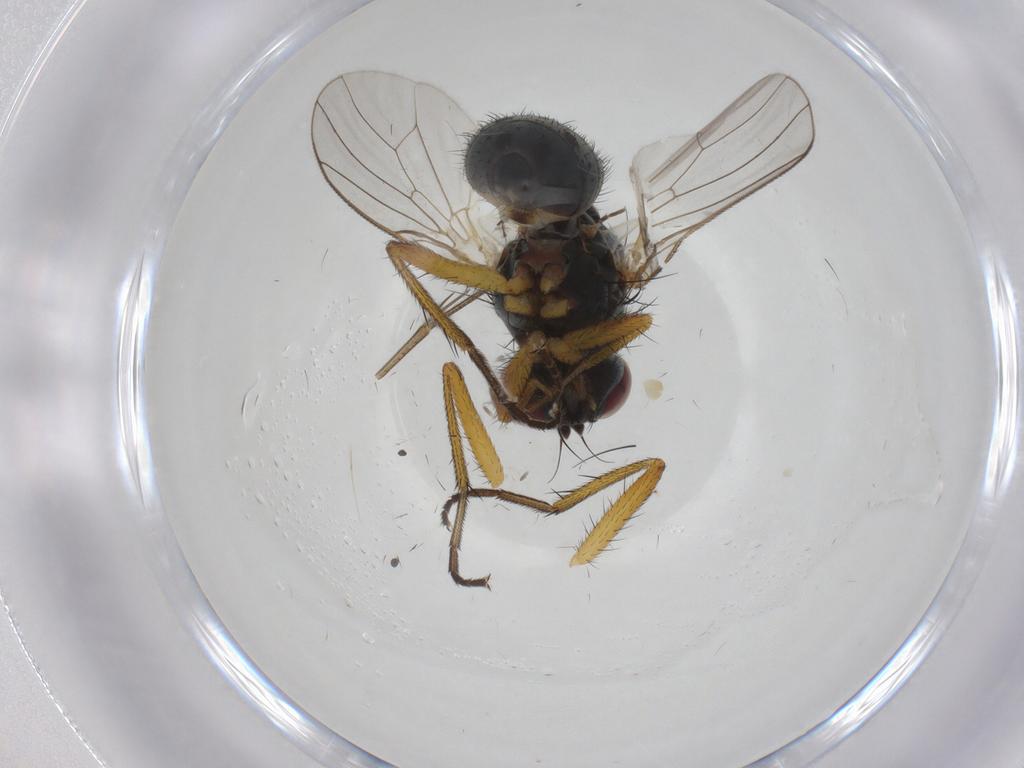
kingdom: Animalia
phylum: Arthropoda
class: Insecta
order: Diptera
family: Muscidae
